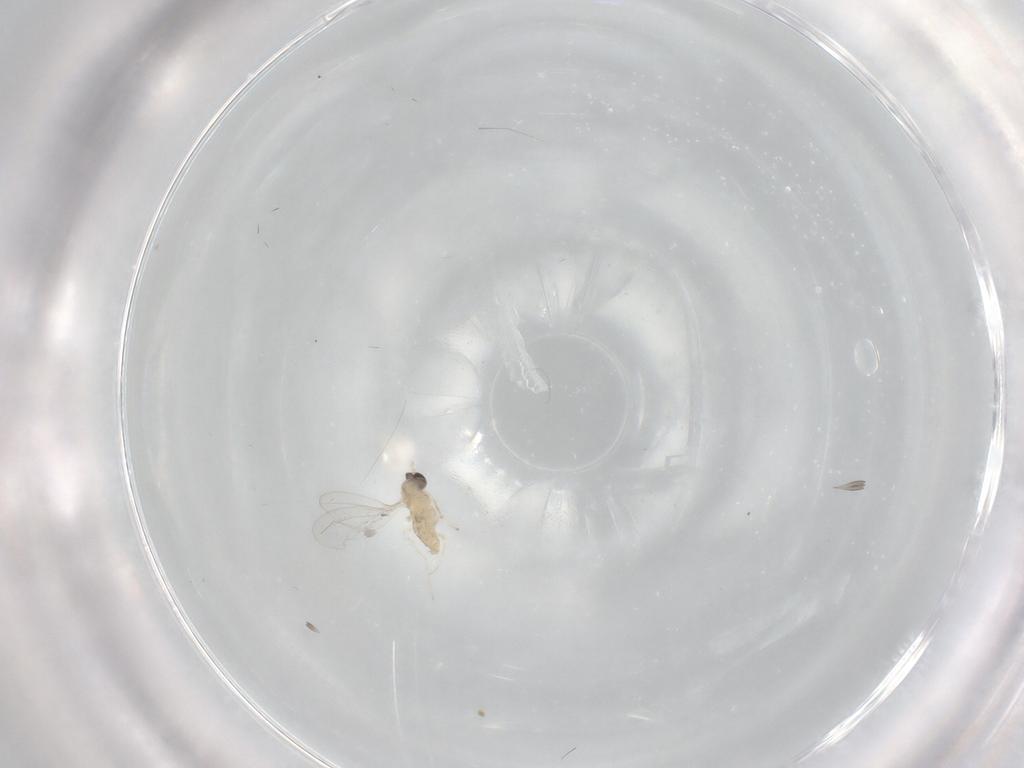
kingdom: Animalia
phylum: Arthropoda
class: Insecta
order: Diptera
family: Cecidomyiidae
